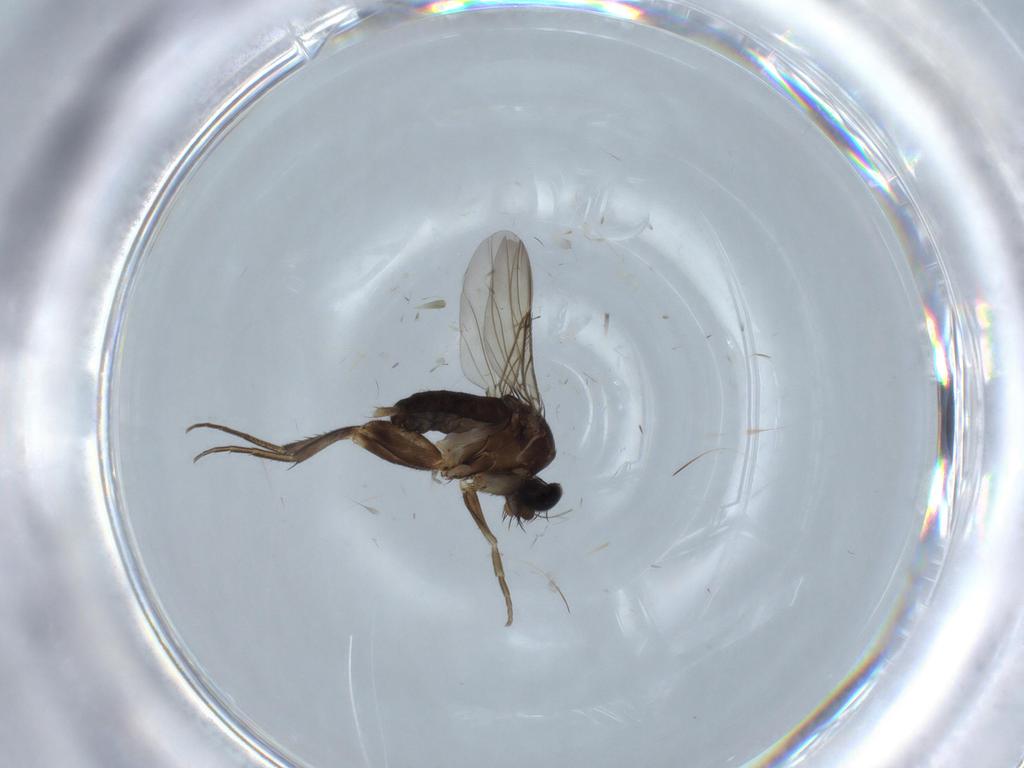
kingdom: Animalia
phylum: Arthropoda
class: Insecta
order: Diptera
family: Phoridae
